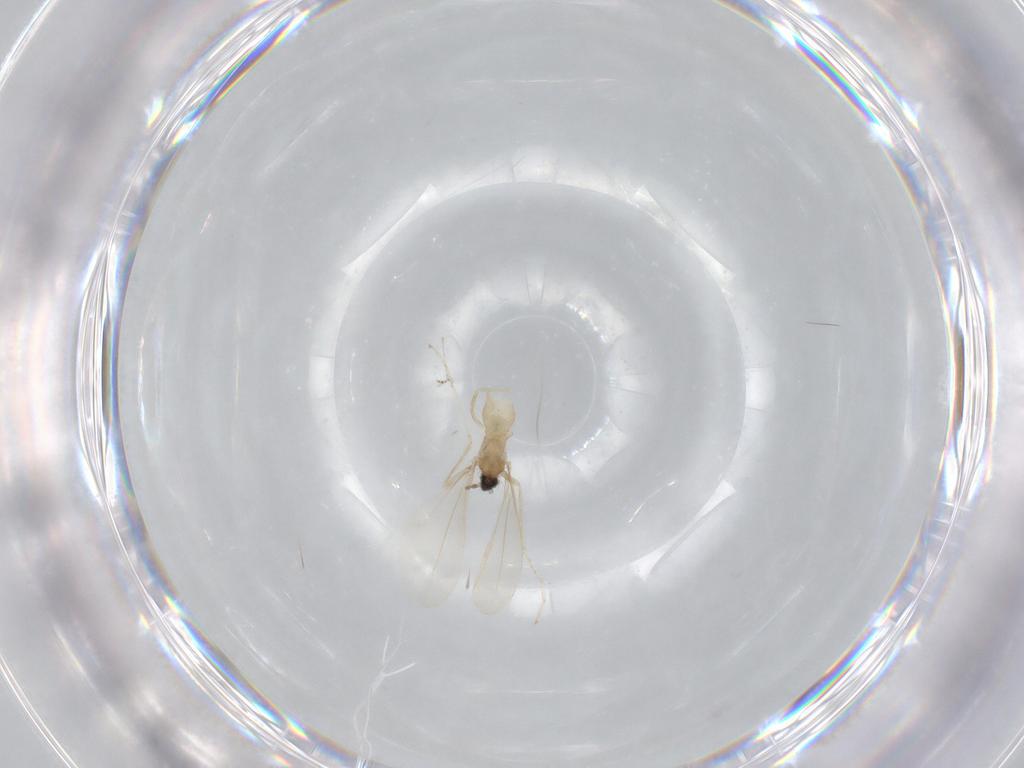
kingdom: Animalia
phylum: Arthropoda
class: Insecta
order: Diptera
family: Cecidomyiidae
